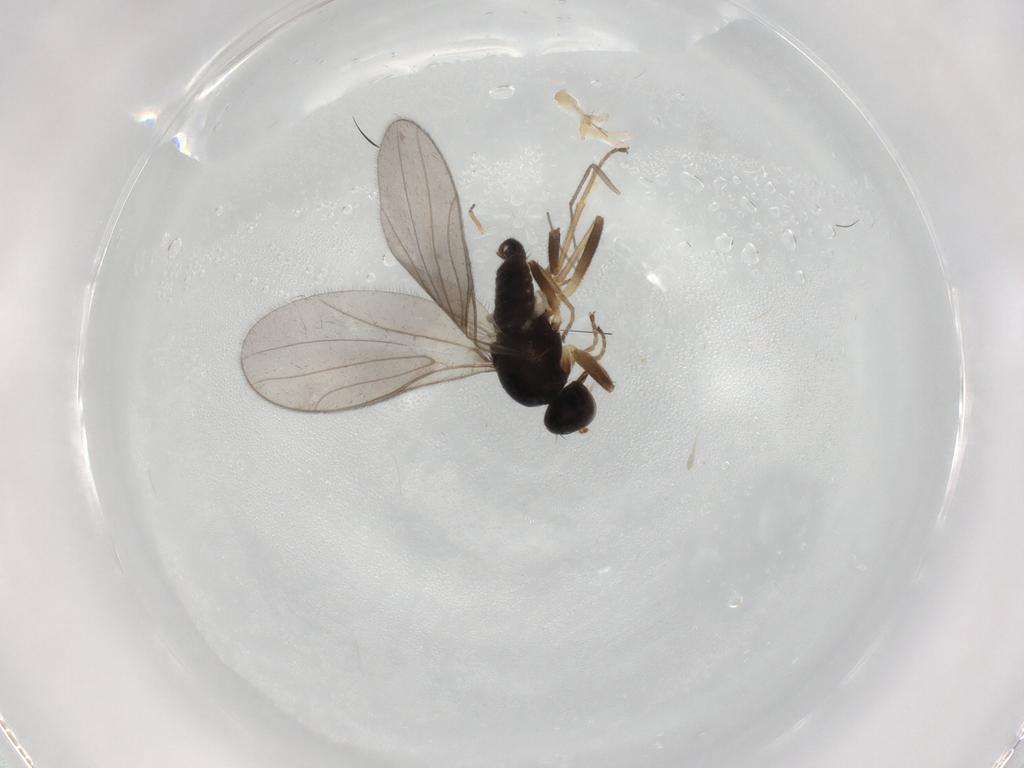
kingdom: Animalia
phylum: Arthropoda
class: Insecta
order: Diptera
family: Hybotidae
